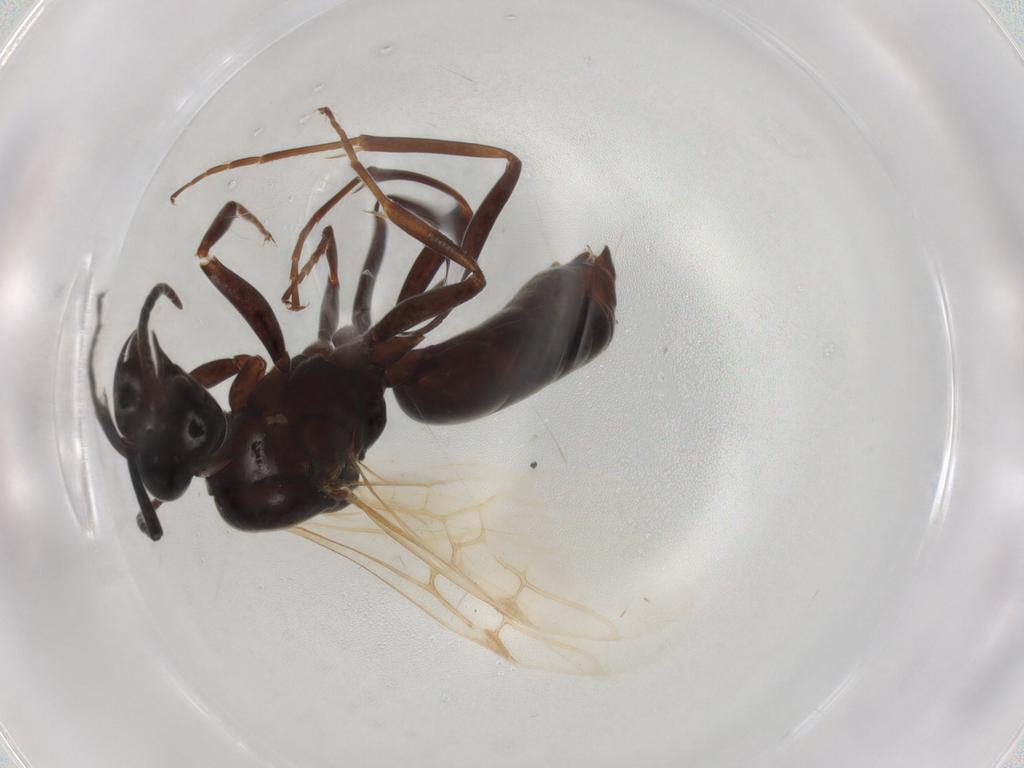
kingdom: Animalia
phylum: Arthropoda
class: Insecta
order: Hymenoptera
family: Formicidae
